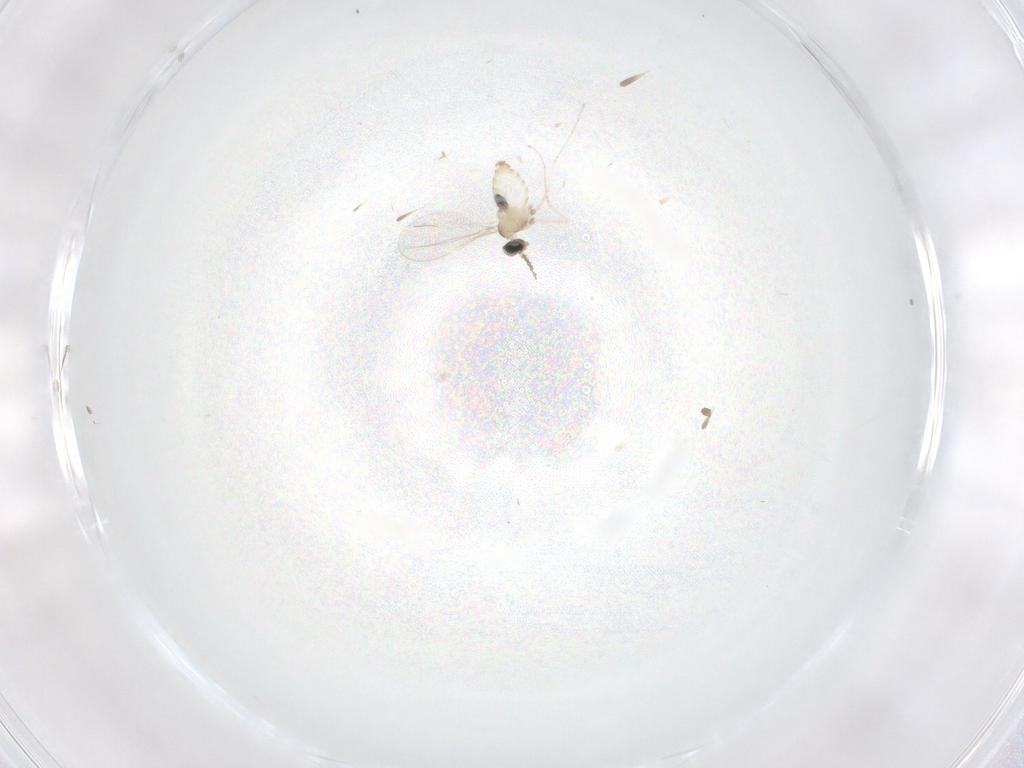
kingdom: Animalia
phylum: Arthropoda
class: Insecta
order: Diptera
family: Cecidomyiidae
